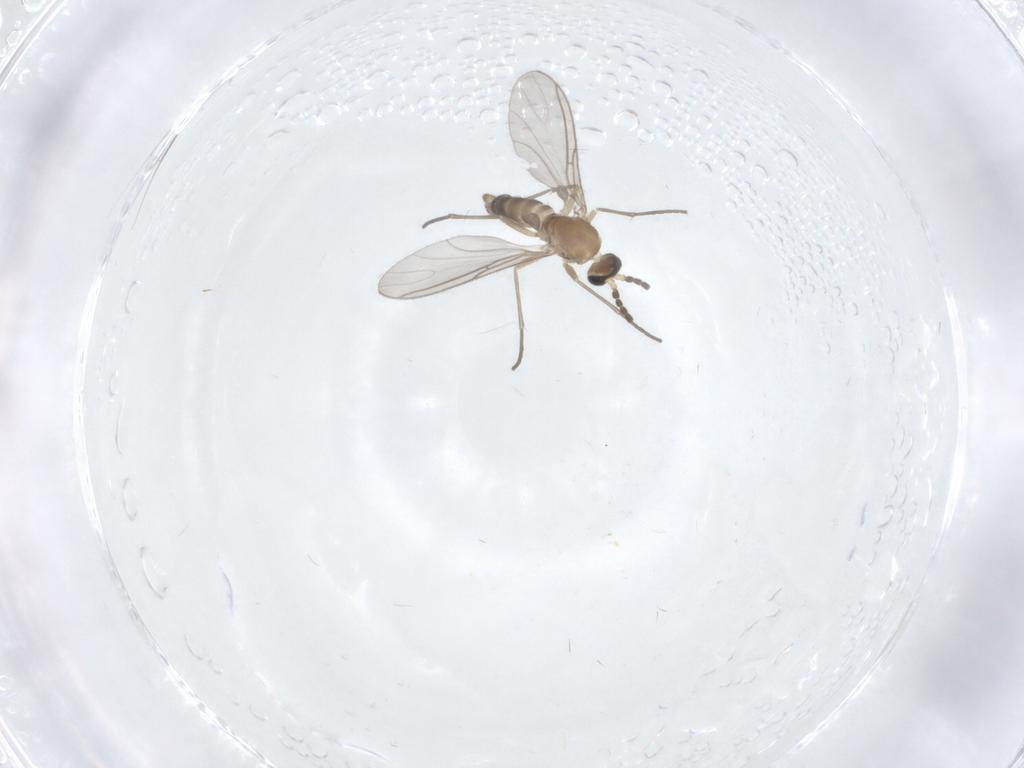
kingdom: Animalia
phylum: Arthropoda
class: Insecta
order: Diptera
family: Sciaridae
